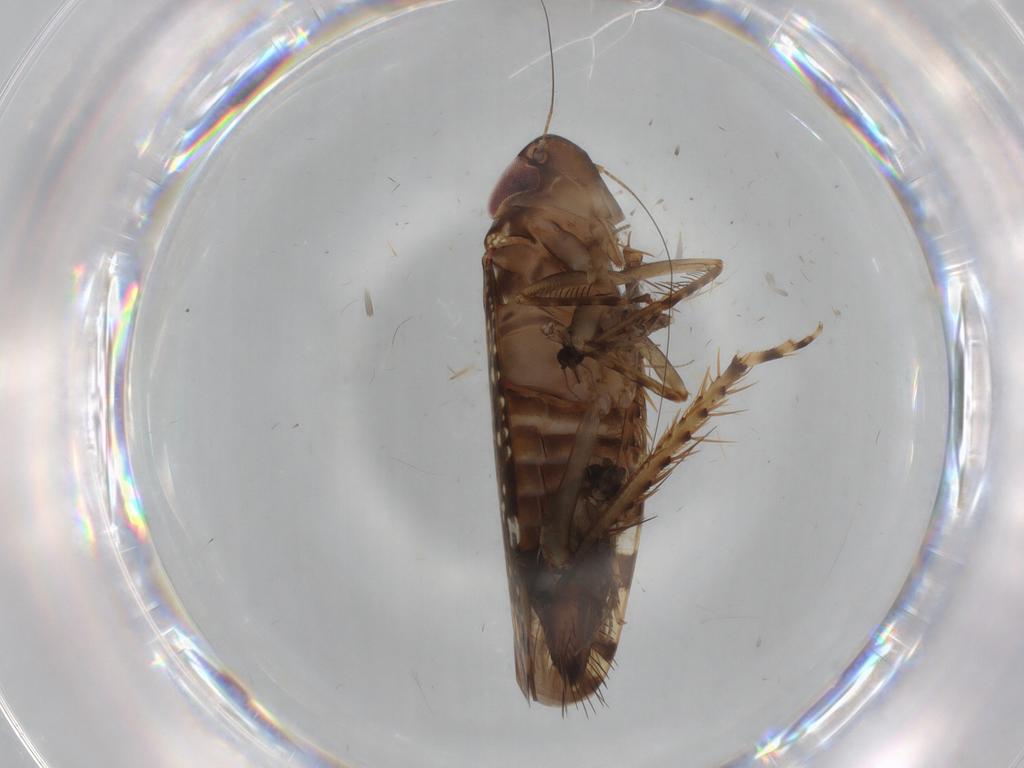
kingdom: Animalia
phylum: Arthropoda
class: Insecta
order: Hemiptera
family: Cicadellidae
